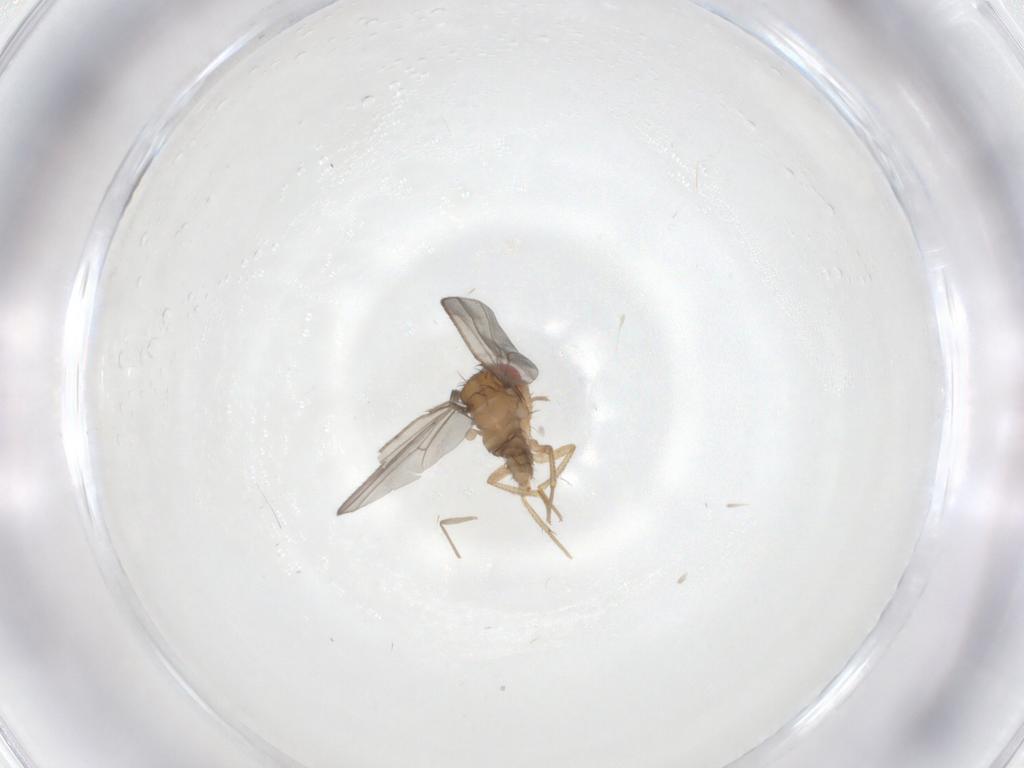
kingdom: Animalia
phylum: Arthropoda
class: Insecta
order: Diptera
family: Drosophilidae
